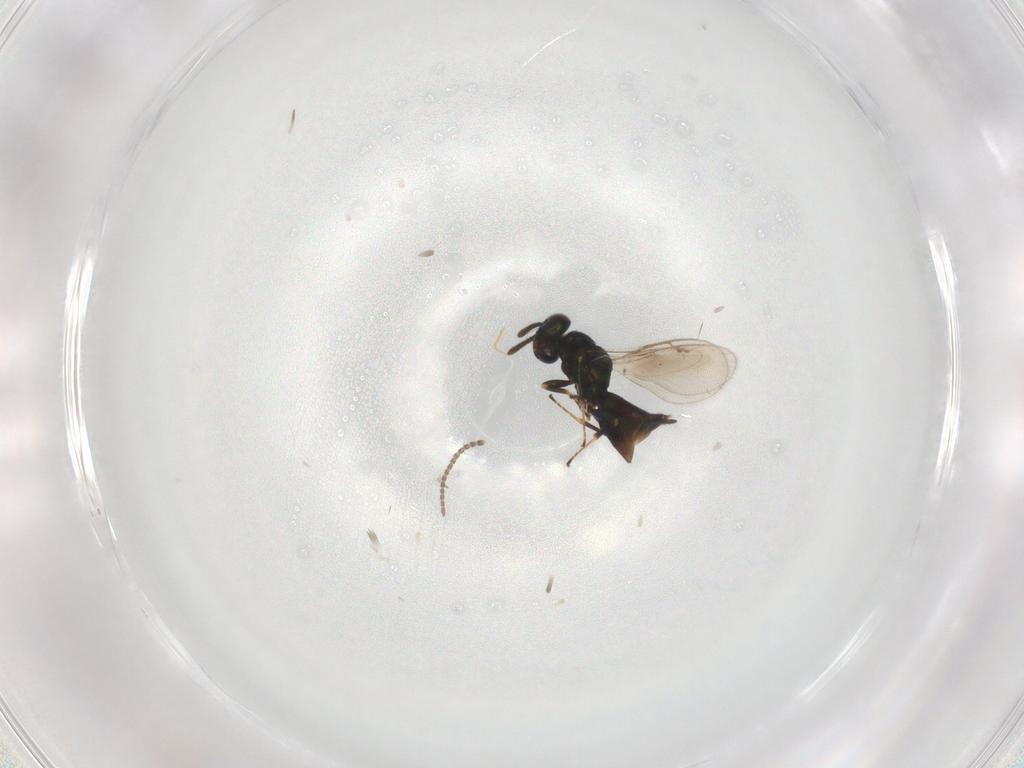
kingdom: Animalia
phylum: Arthropoda
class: Insecta
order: Hymenoptera
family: Pteromalidae
